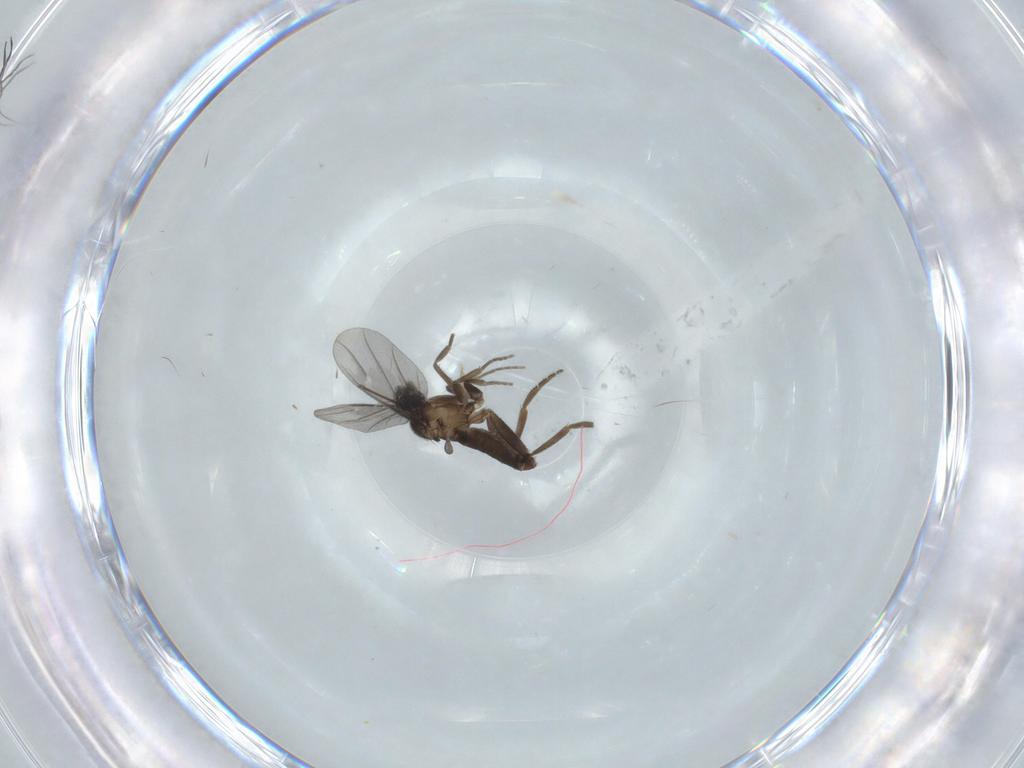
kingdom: Animalia
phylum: Arthropoda
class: Insecta
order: Diptera
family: Chironomidae
